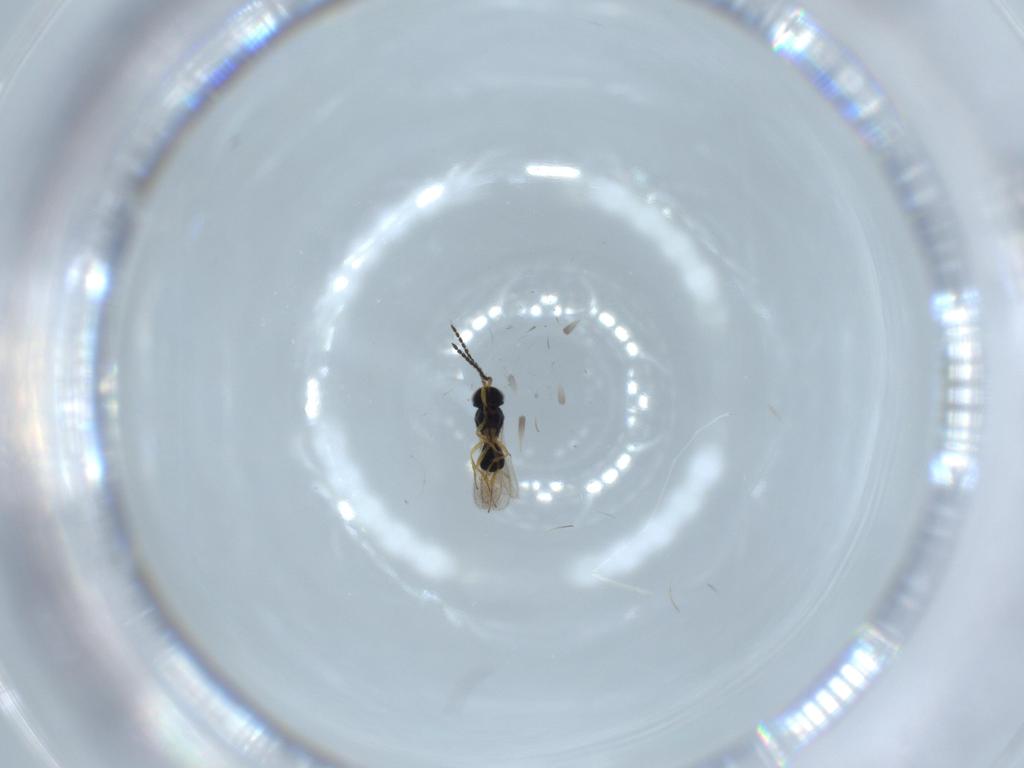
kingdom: Animalia
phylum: Arthropoda
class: Insecta
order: Hymenoptera
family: Scelionidae
